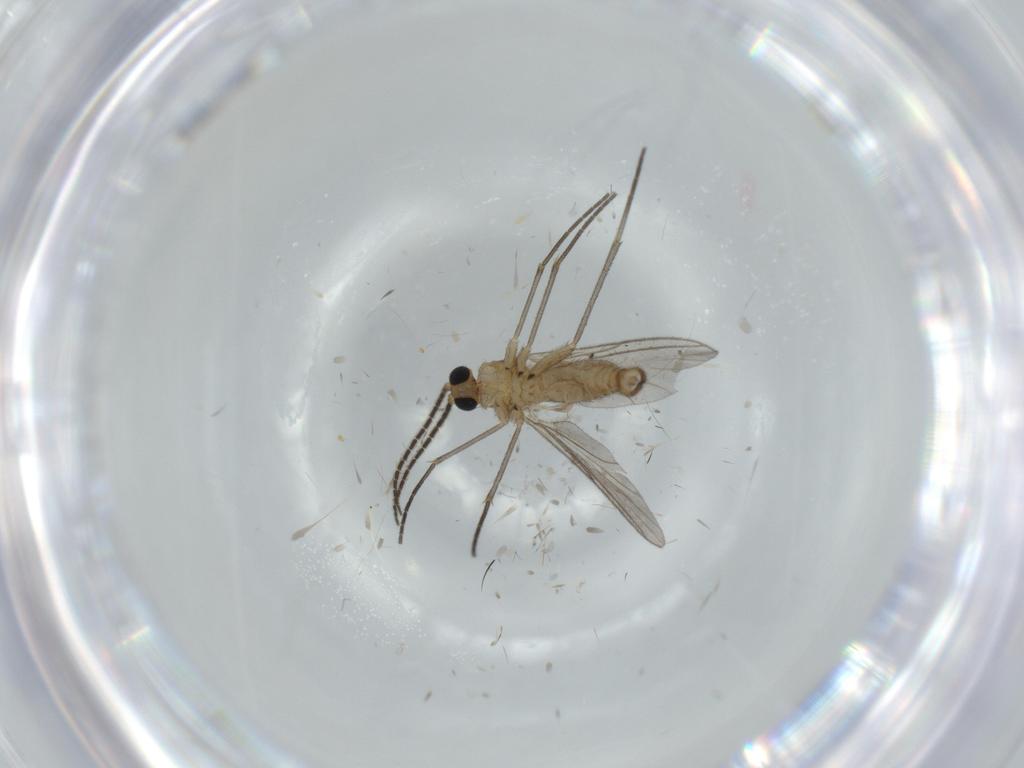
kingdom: Animalia
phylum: Arthropoda
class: Insecta
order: Diptera
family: Sciaridae
